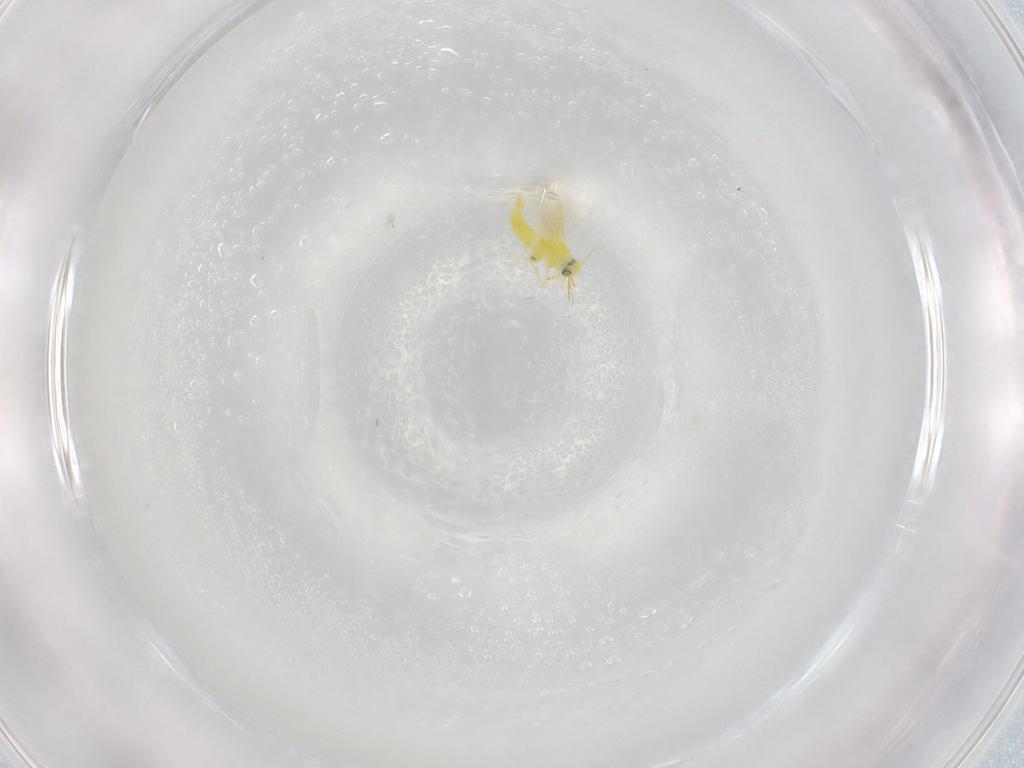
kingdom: Animalia
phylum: Arthropoda
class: Insecta
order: Hemiptera
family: Aleyrodidae
